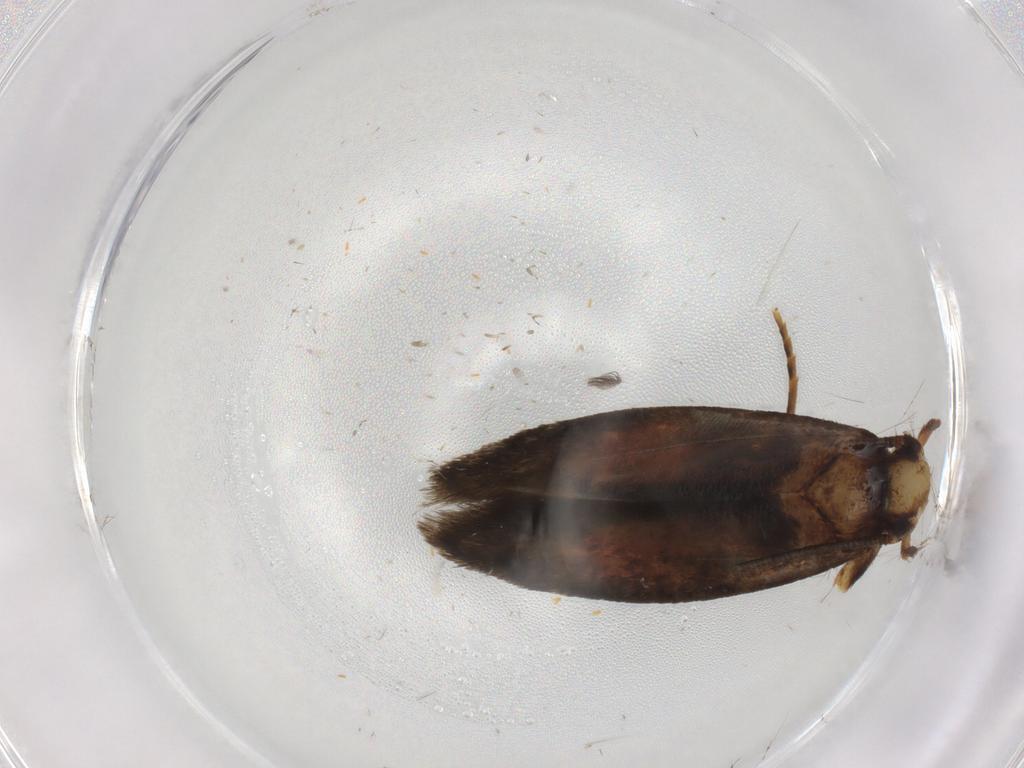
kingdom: Animalia
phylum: Arthropoda
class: Insecta
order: Lepidoptera
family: Tineidae
